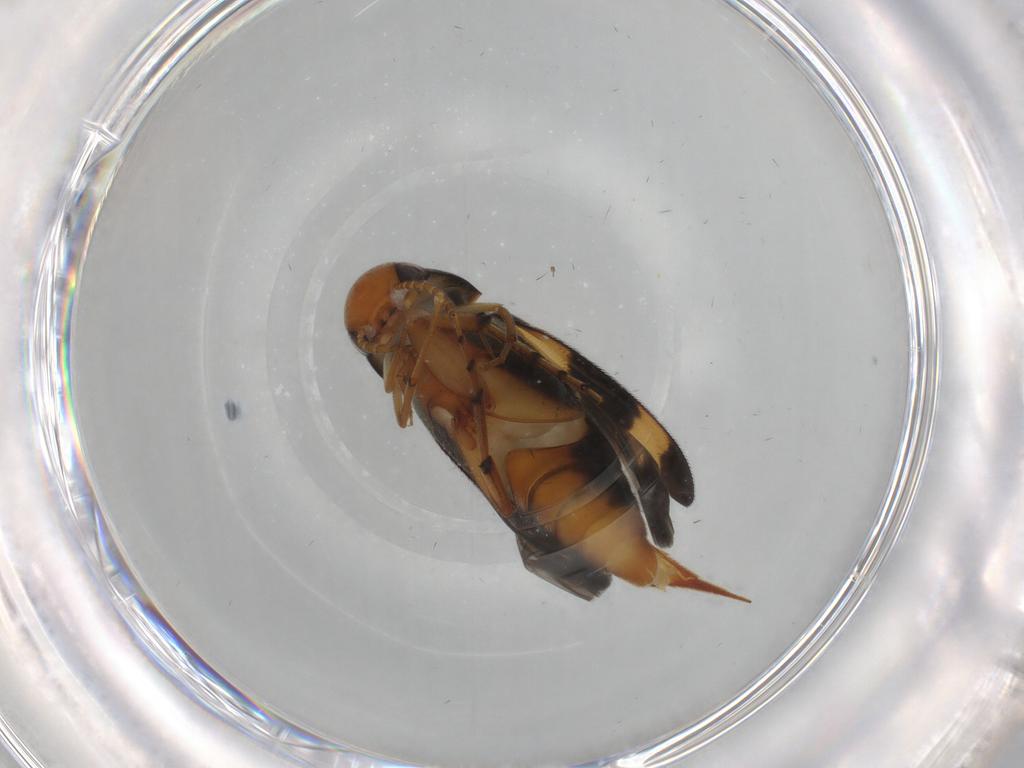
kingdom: Animalia
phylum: Arthropoda
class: Insecta
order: Coleoptera
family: Mordellidae
